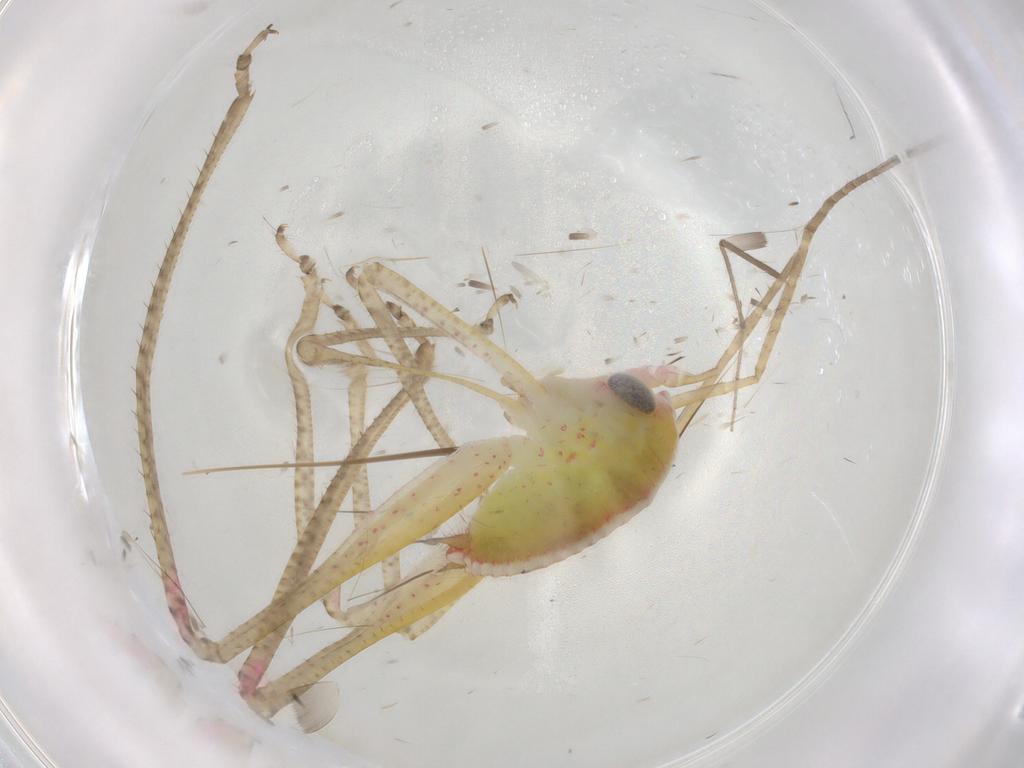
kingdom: Animalia
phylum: Arthropoda
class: Insecta
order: Orthoptera
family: Tettigoniidae
